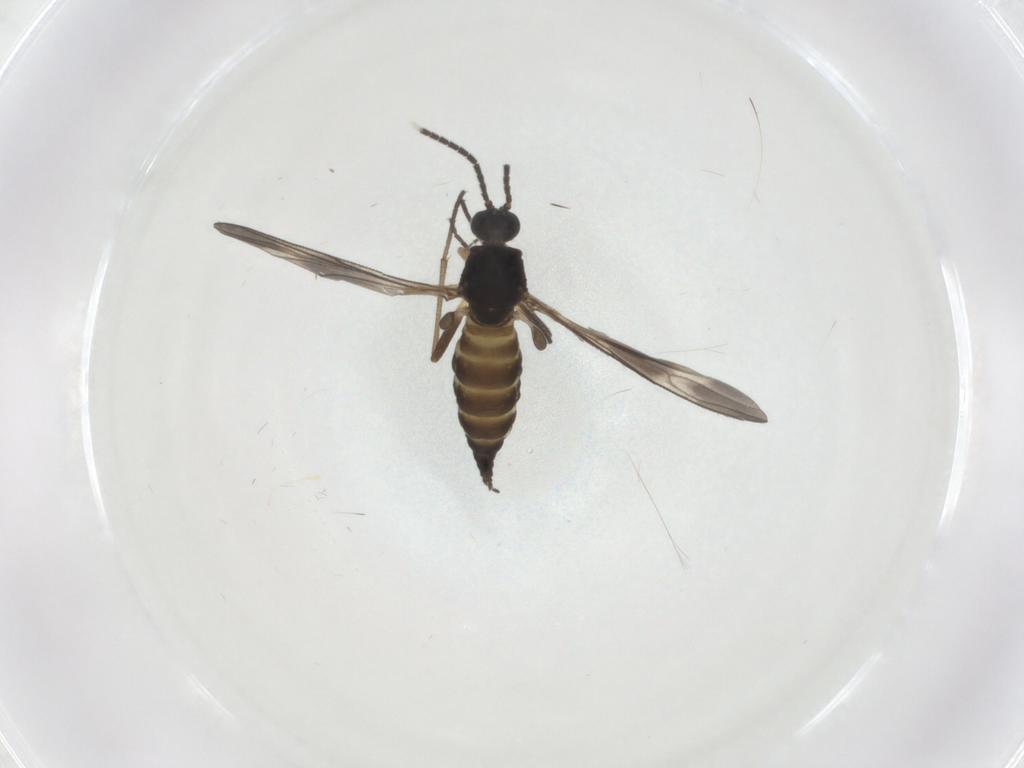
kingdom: Animalia
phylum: Arthropoda
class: Insecta
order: Diptera
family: Sciaridae
